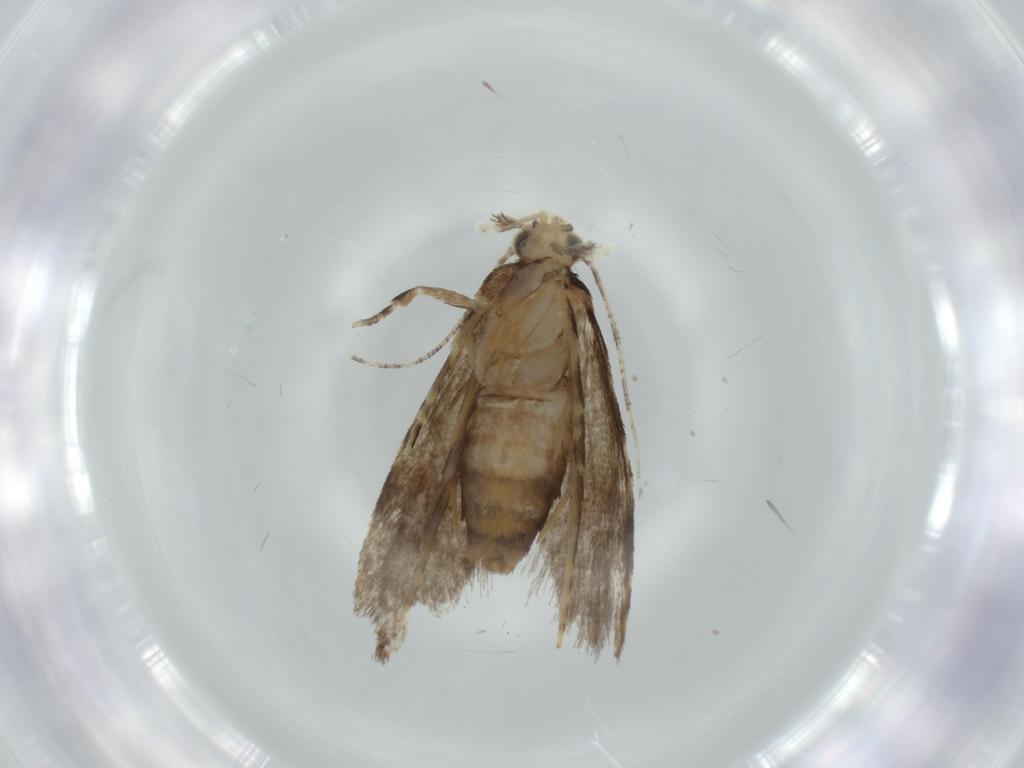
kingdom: Animalia
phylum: Arthropoda
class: Insecta
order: Lepidoptera
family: Tineidae
